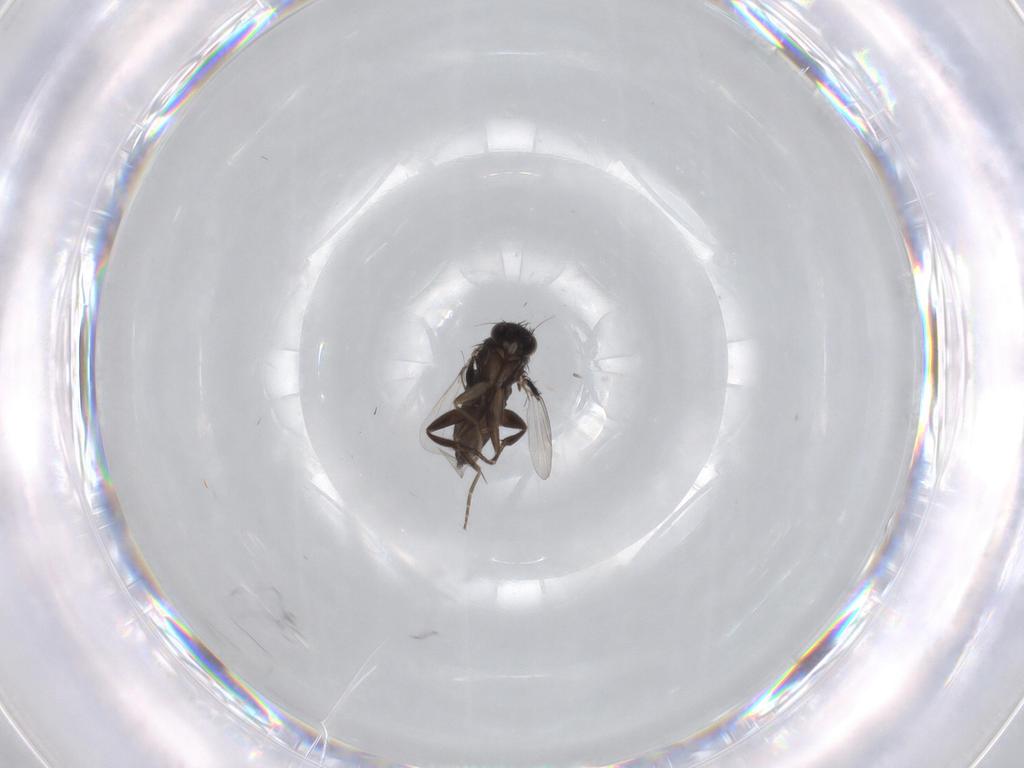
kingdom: Animalia
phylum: Arthropoda
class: Insecta
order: Diptera
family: Phoridae
